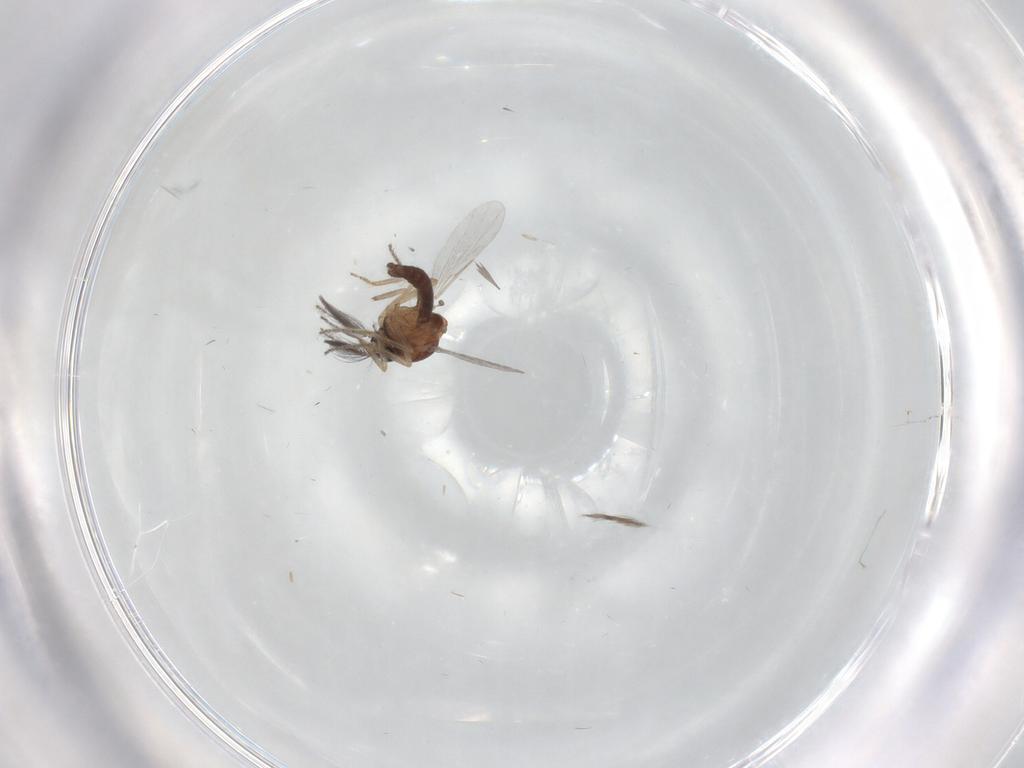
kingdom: Animalia
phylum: Arthropoda
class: Insecta
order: Diptera
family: Ceratopogonidae
